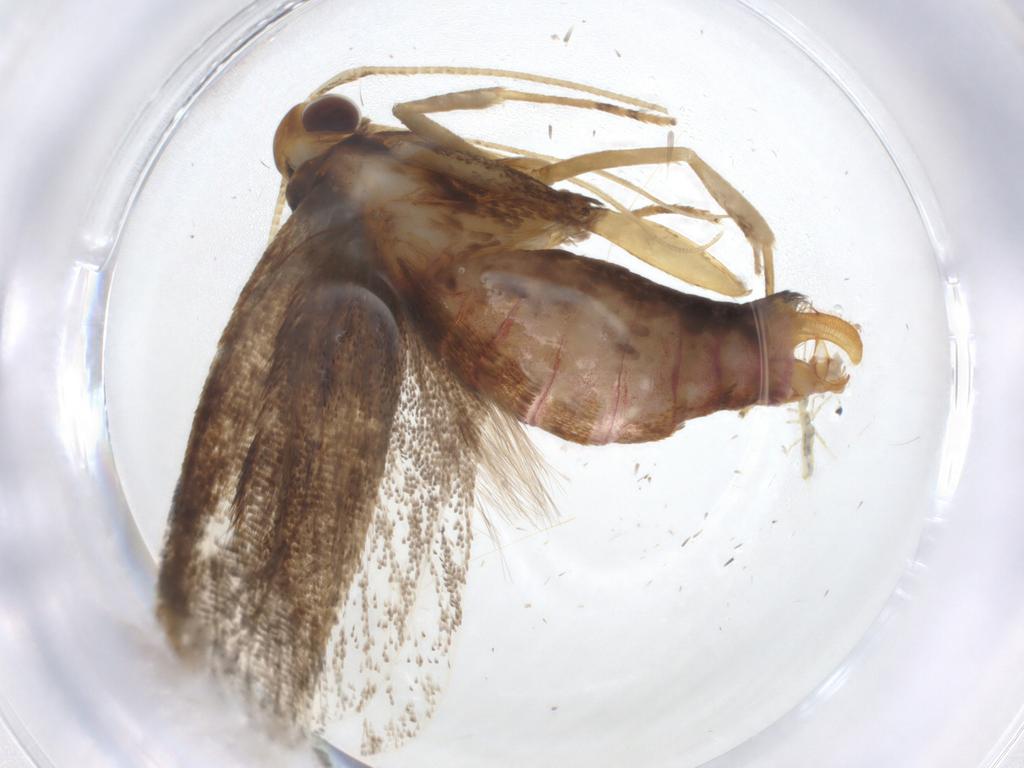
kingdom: Animalia
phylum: Arthropoda
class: Insecta
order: Lepidoptera
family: Lecithoceridae
